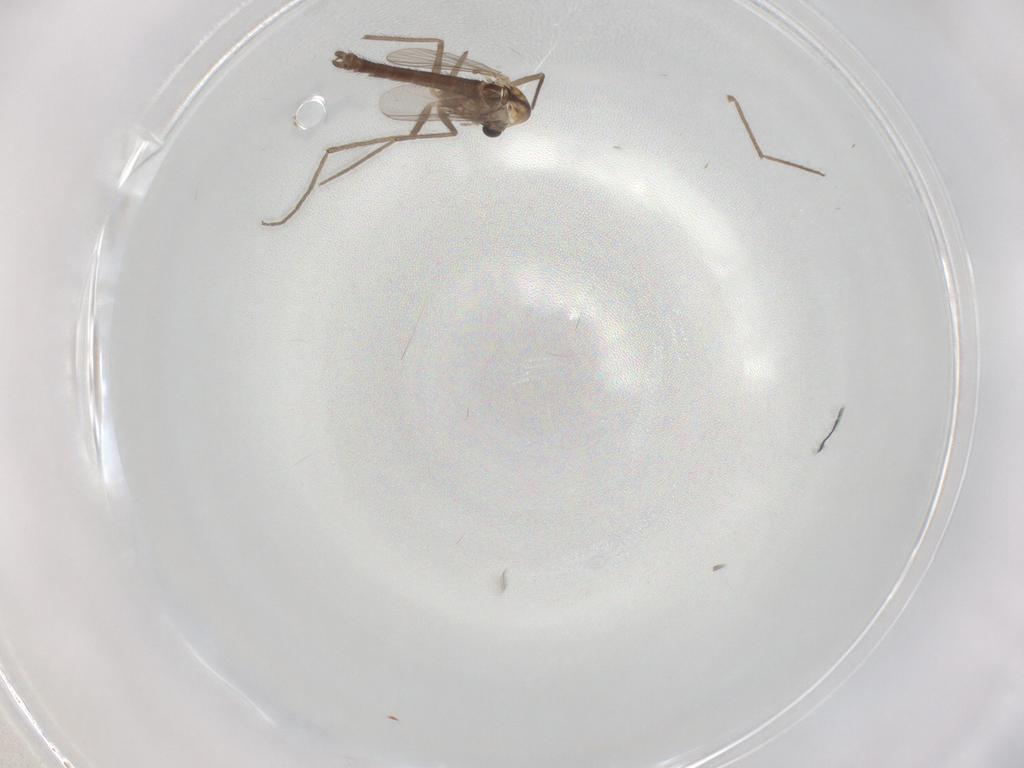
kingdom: Animalia
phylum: Arthropoda
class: Insecta
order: Diptera
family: Chironomidae
